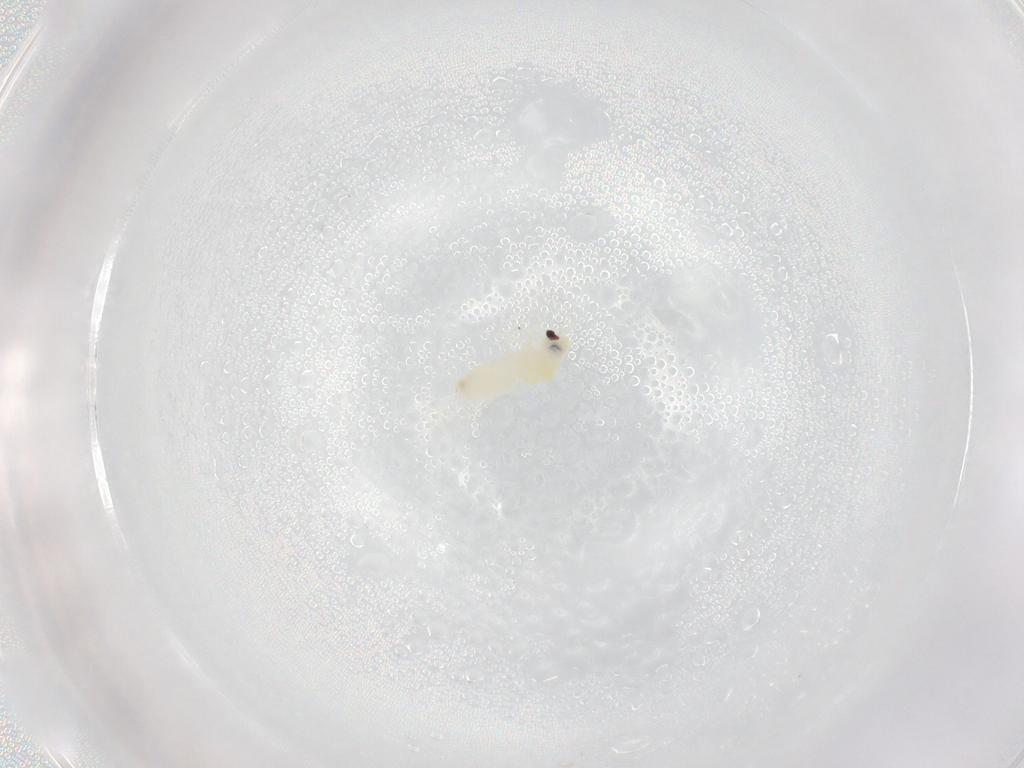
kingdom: Animalia
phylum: Arthropoda
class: Insecta
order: Hemiptera
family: Aleyrodidae
